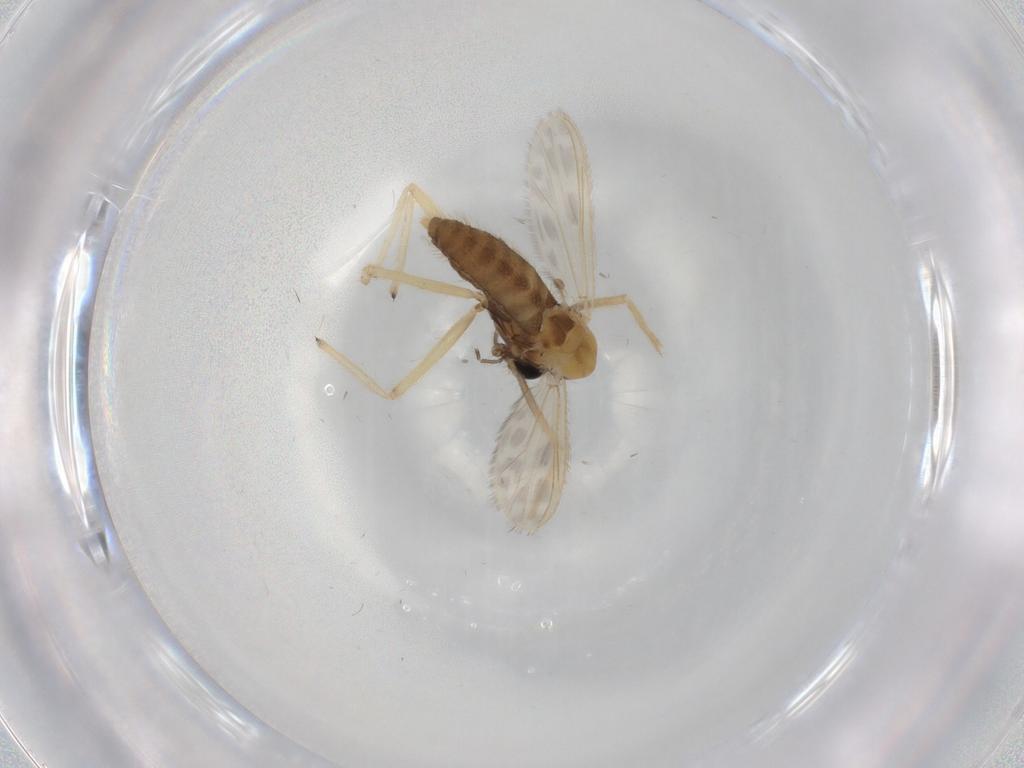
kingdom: Animalia
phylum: Arthropoda
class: Insecta
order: Diptera
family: Chironomidae
